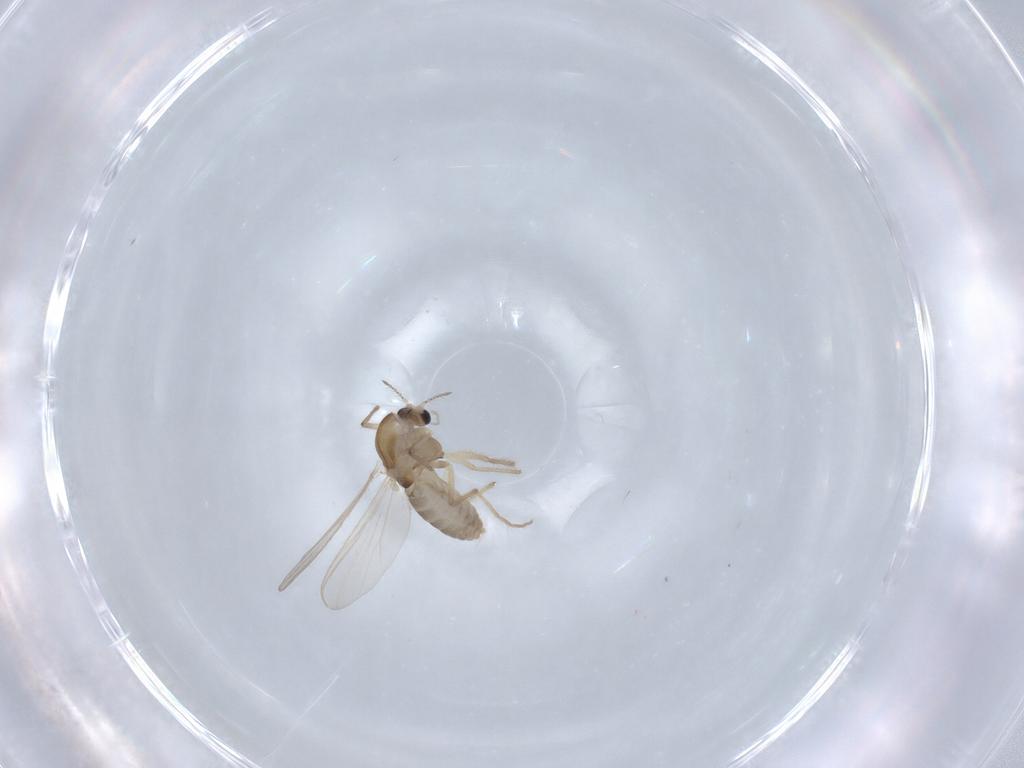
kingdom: Animalia
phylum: Arthropoda
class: Insecta
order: Diptera
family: Chironomidae
